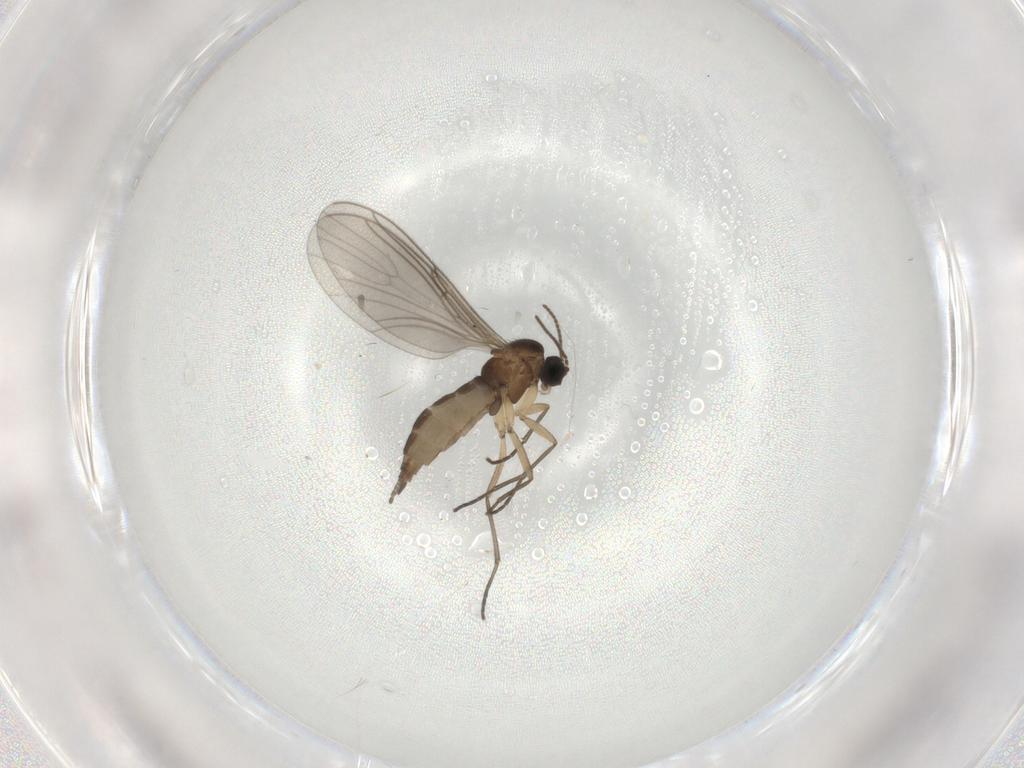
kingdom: Animalia
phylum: Arthropoda
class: Insecta
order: Diptera
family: Sciaridae
